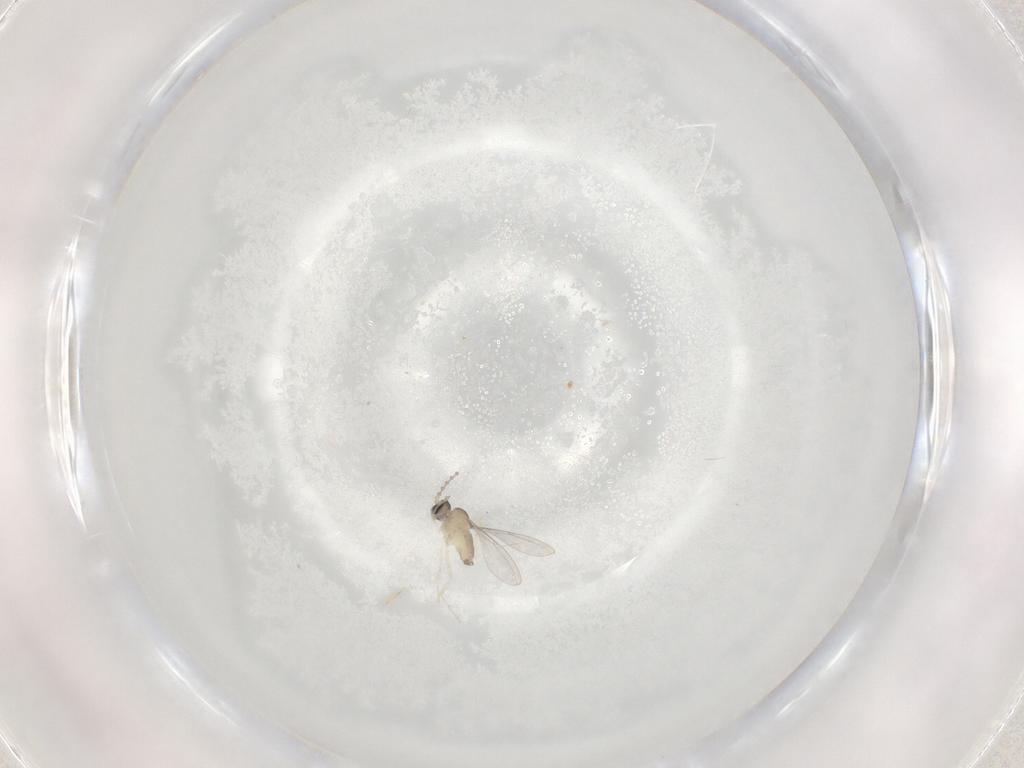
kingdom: Animalia
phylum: Arthropoda
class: Insecta
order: Diptera
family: Cecidomyiidae
